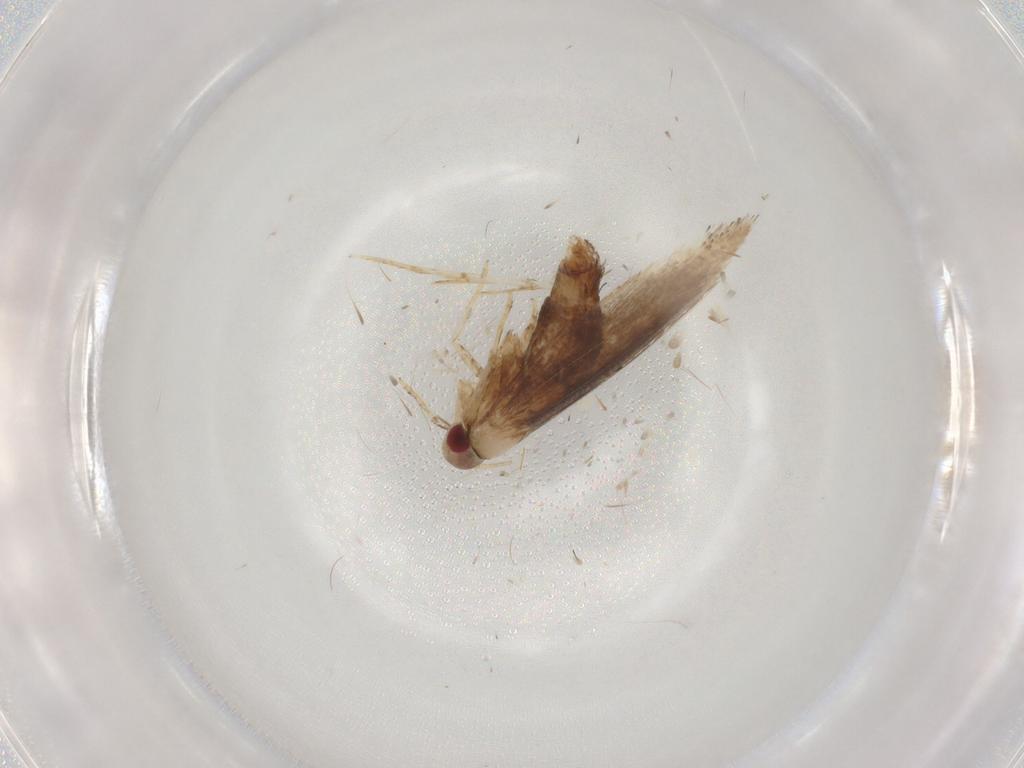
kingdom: Animalia
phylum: Arthropoda
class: Insecta
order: Lepidoptera
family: Cosmopterigidae
